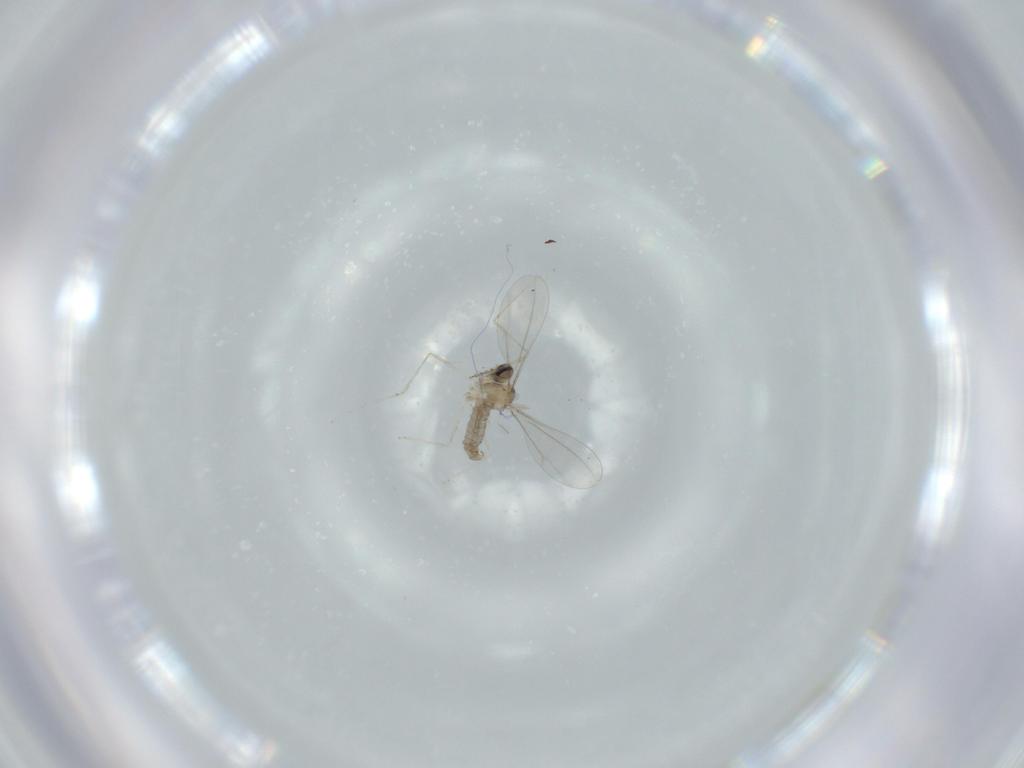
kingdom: Animalia
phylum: Arthropoda
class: Insecta
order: Diptera
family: Cecidomyiidae
